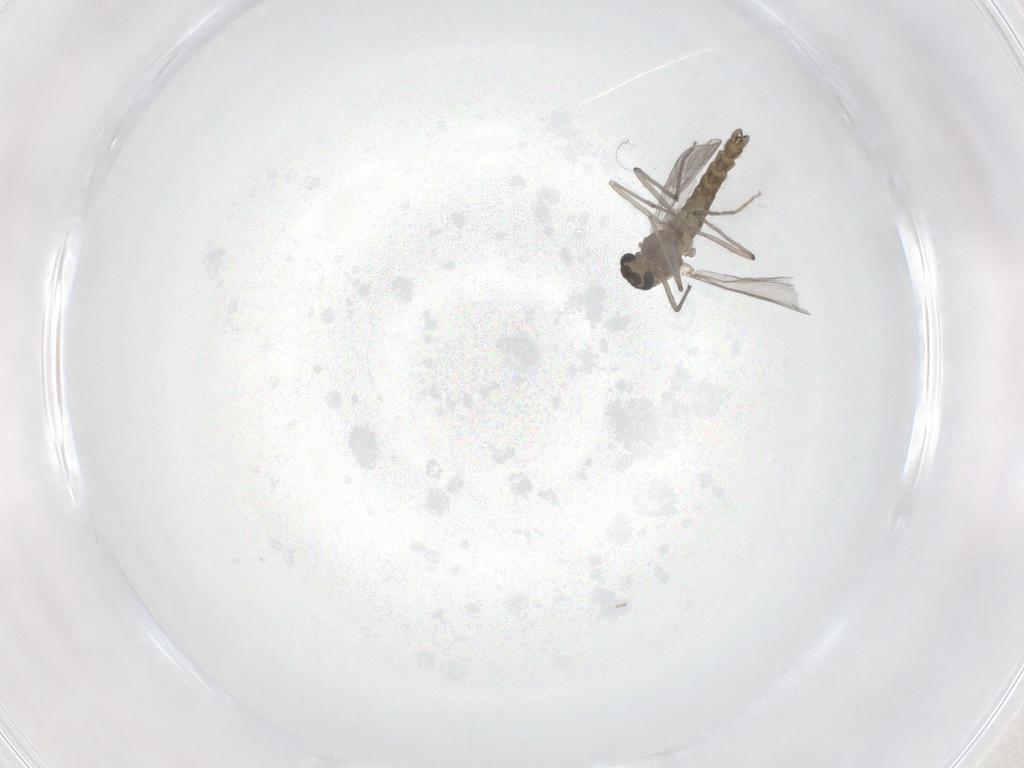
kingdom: Animalia
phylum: Arthropoda
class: Insecta
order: Diptera
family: Chironomidae
